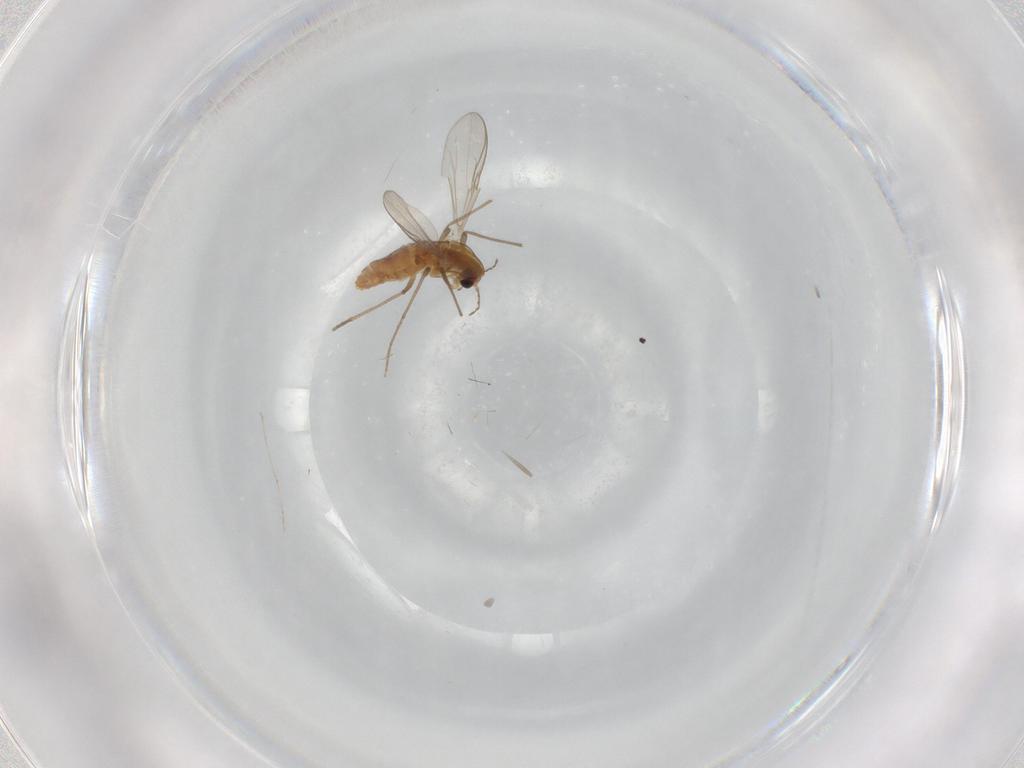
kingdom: Animalia
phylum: Arthropoda
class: Insecta
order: Diptera
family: Chironomidae
